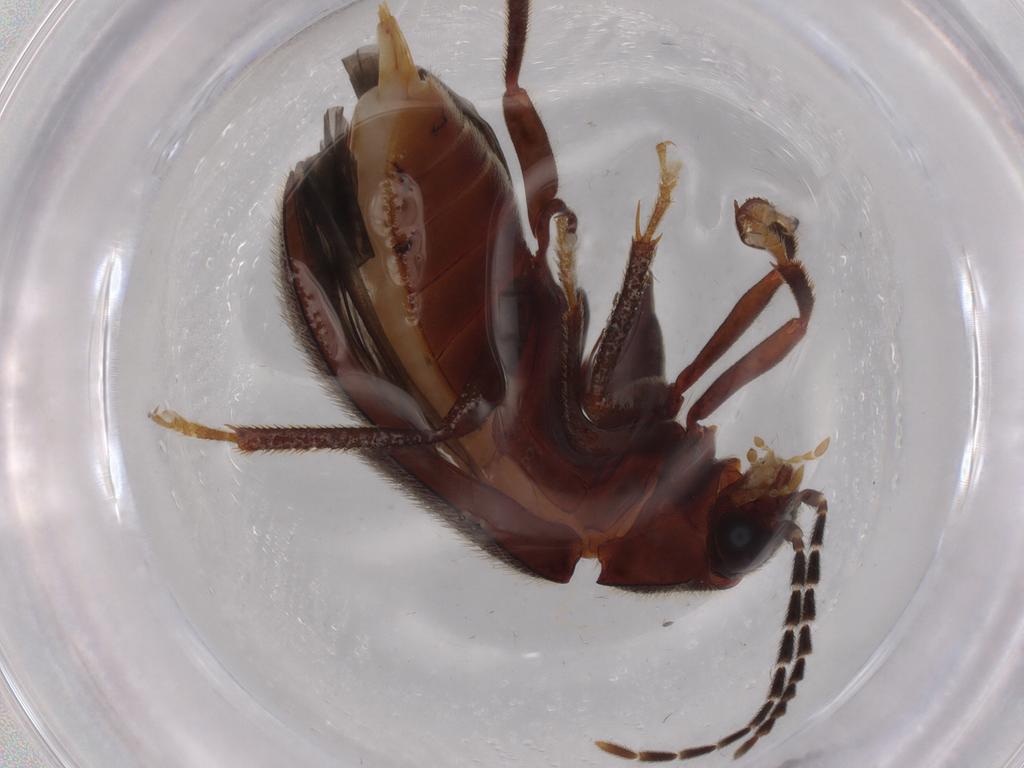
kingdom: Animalia
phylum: Arthropoda
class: Insecta
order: Coleoptera
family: Ptilodactylidae
